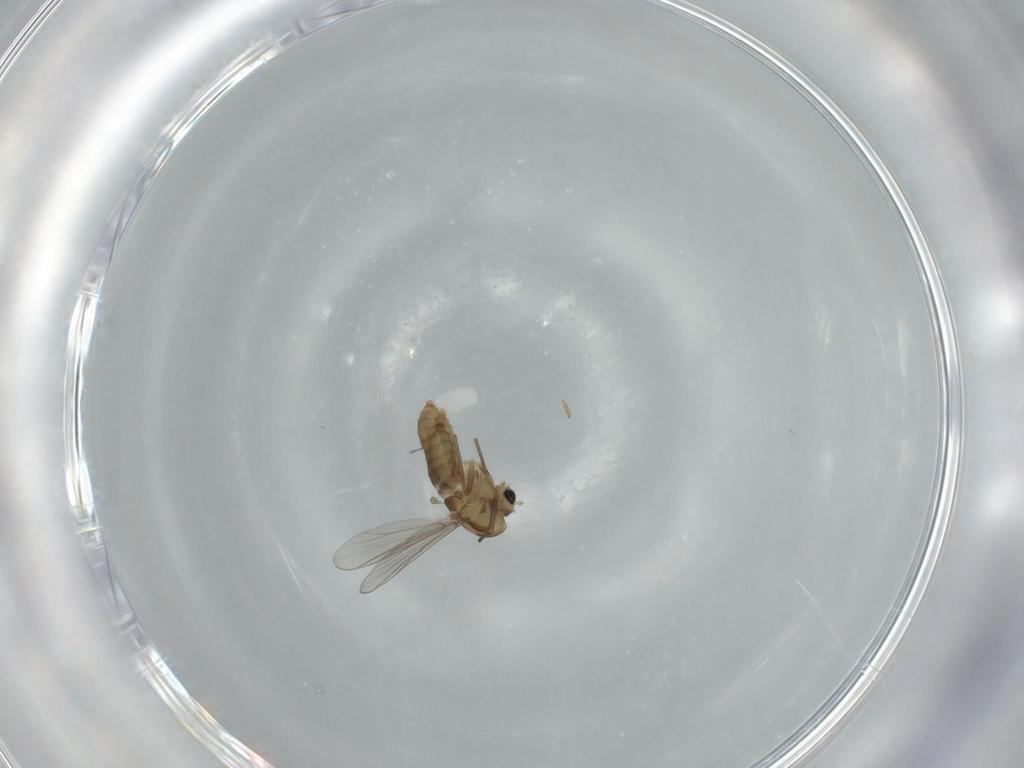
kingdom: Animalia
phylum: Arthropoda
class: Insecta
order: Diptera
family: Chironomidae
